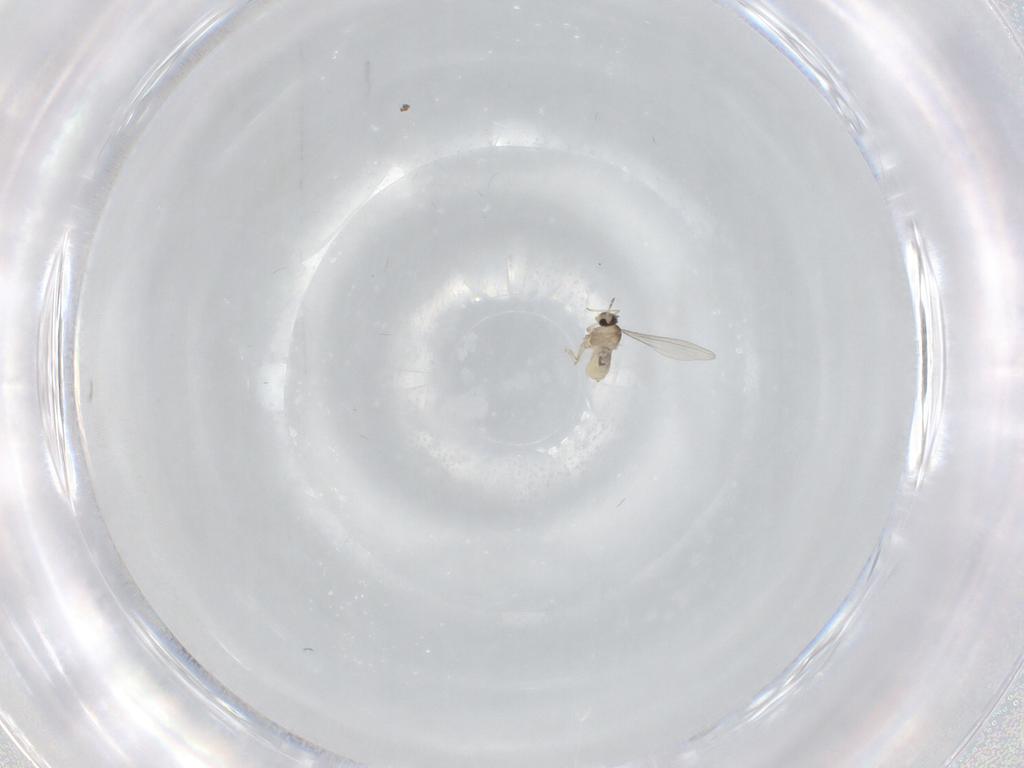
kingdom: Animalia
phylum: Arthropoda
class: Insecta
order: Diptera
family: Cecidomyiidae
